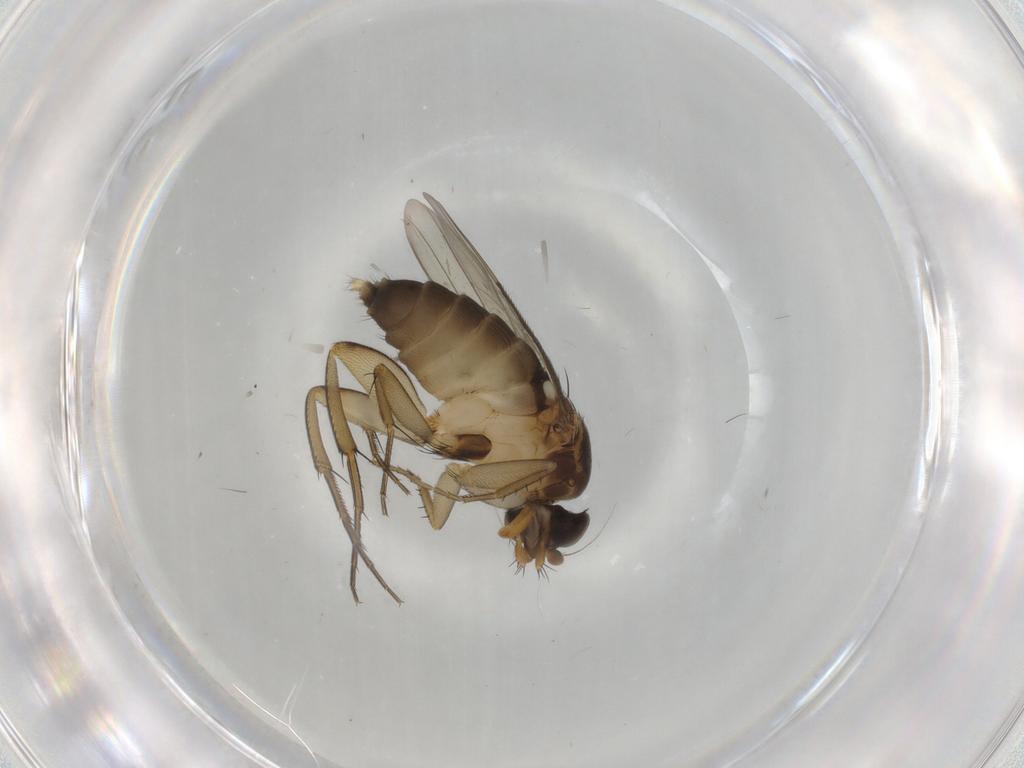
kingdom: Animalia
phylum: Arthropoda
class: Insecta
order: Diptera
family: Phoridae
